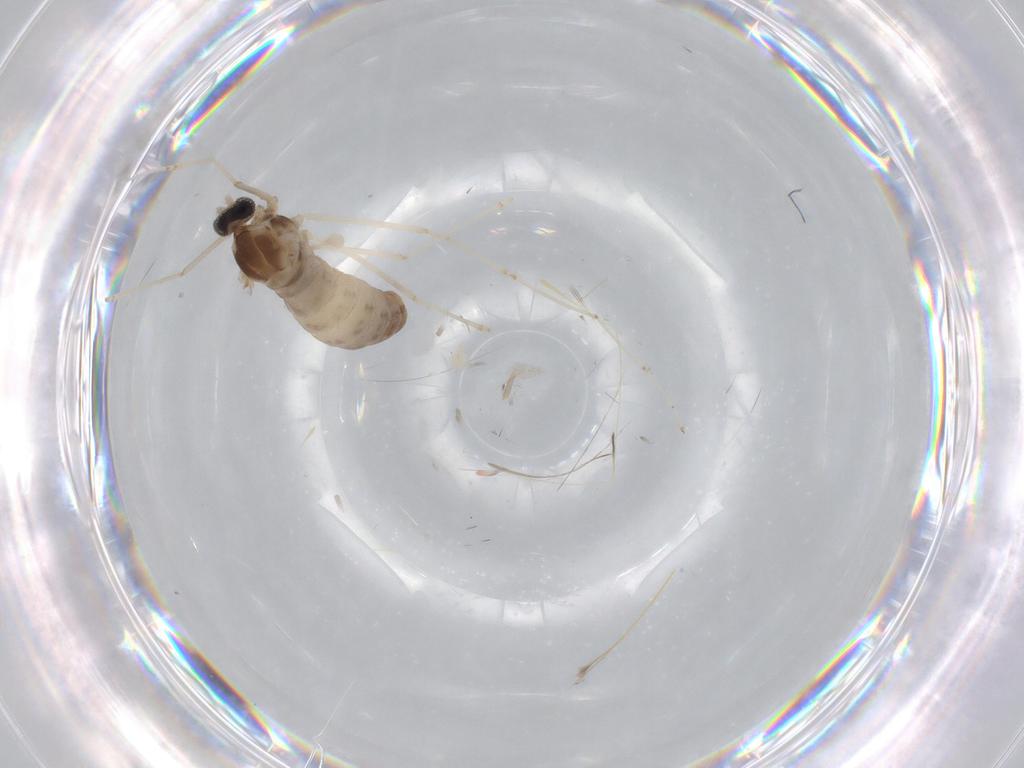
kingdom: Animalia
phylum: Arthropoda
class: Insecta
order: Diptera
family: Cecidomyiidae
